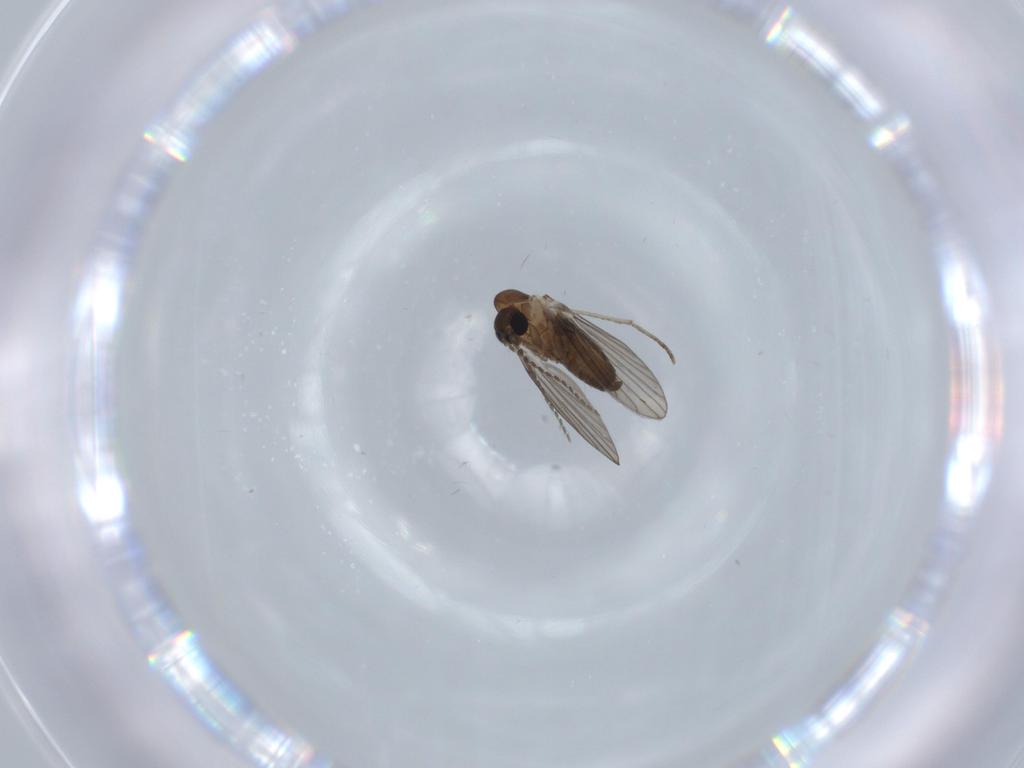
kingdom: Animalia
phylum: Arthropoda
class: Insecta
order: Diptera
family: Psychodidae
